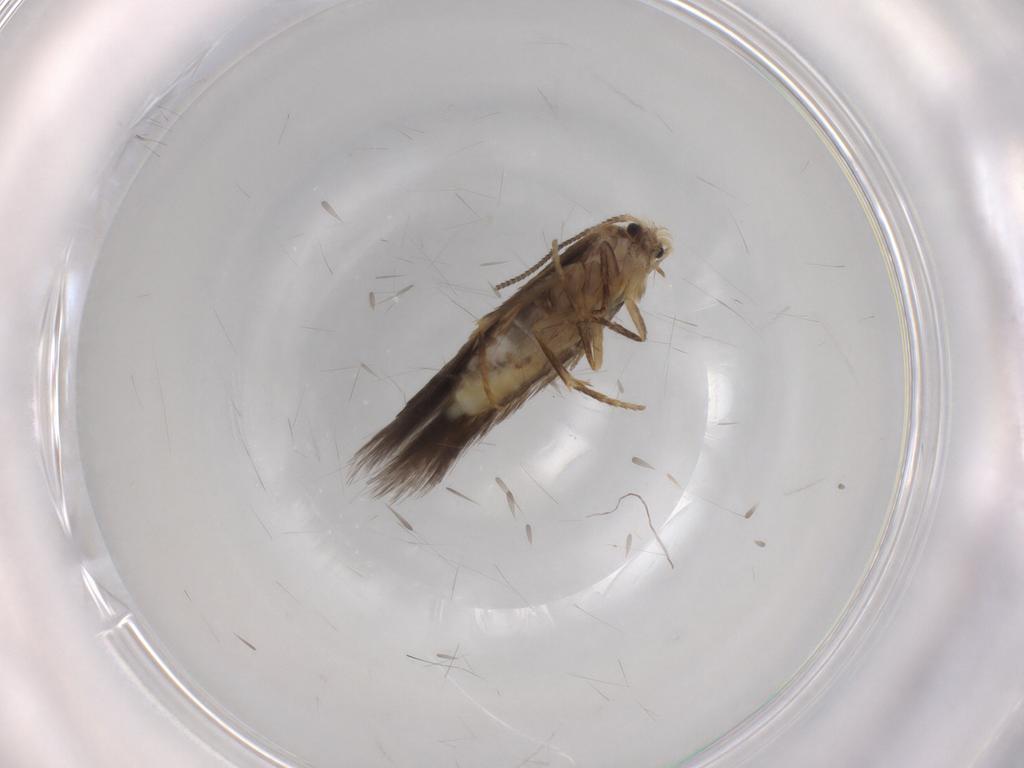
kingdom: Animalia
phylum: Arthropoda
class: Insecta
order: Lepidoptera
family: Nepticulidae
